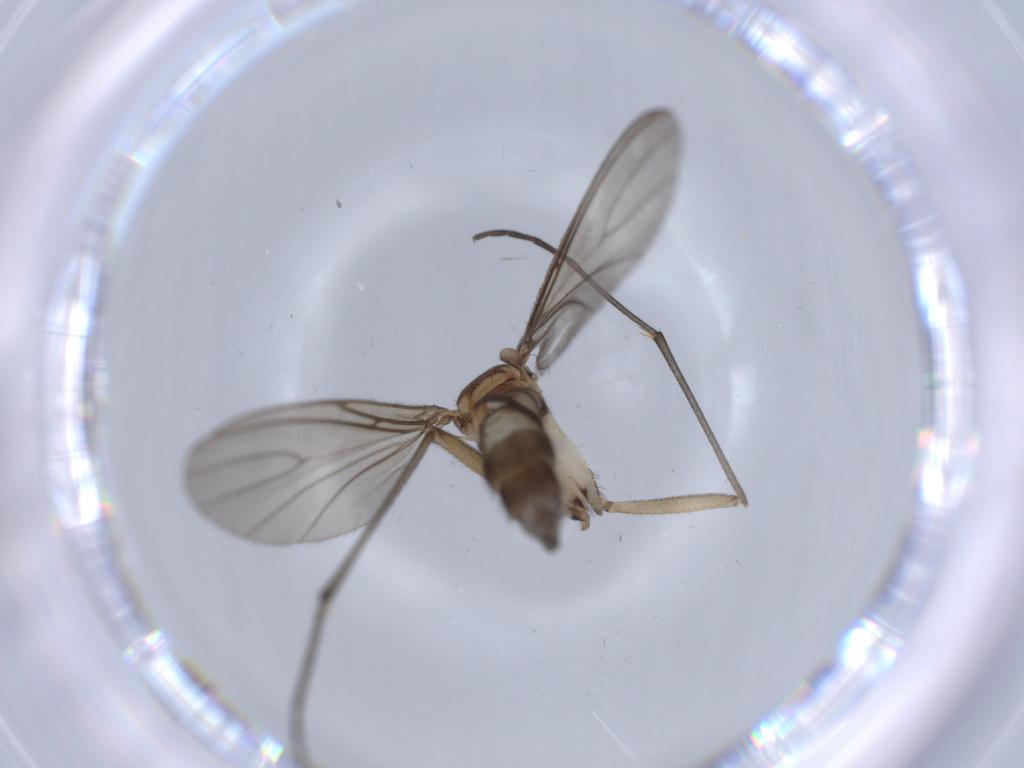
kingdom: Animalia
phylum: Arthropoda
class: Insecta
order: Diptera
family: Sciaridae
